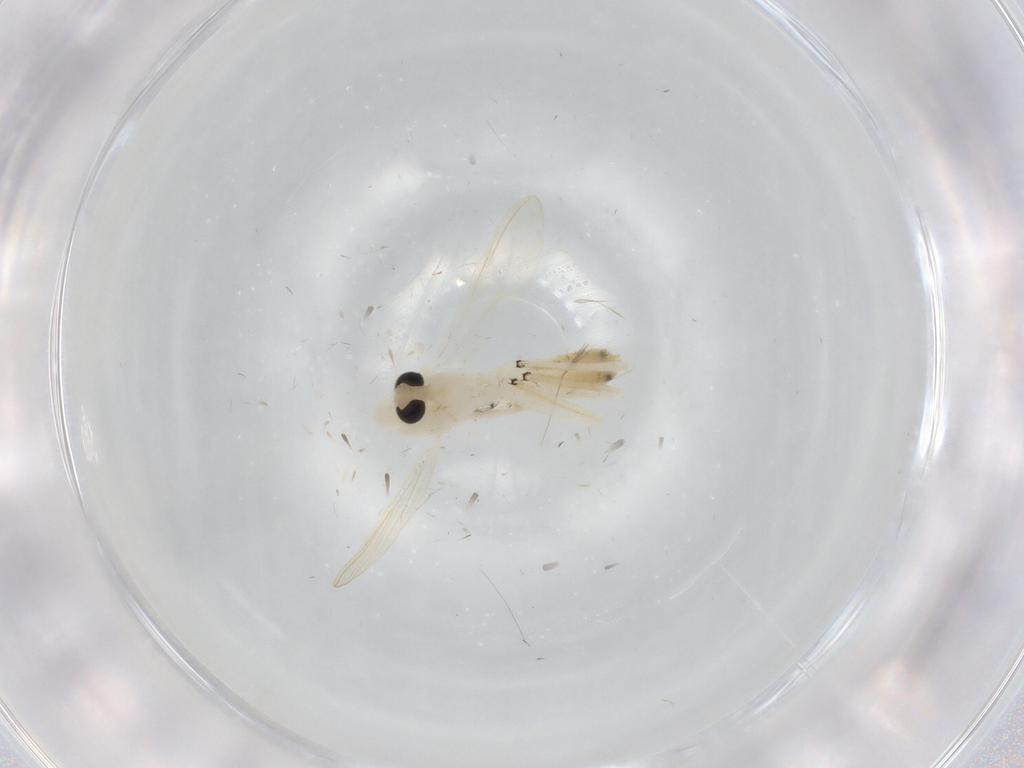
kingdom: Animalia
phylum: Arthropoda
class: Insecta
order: Diptera
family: Chironomidae
